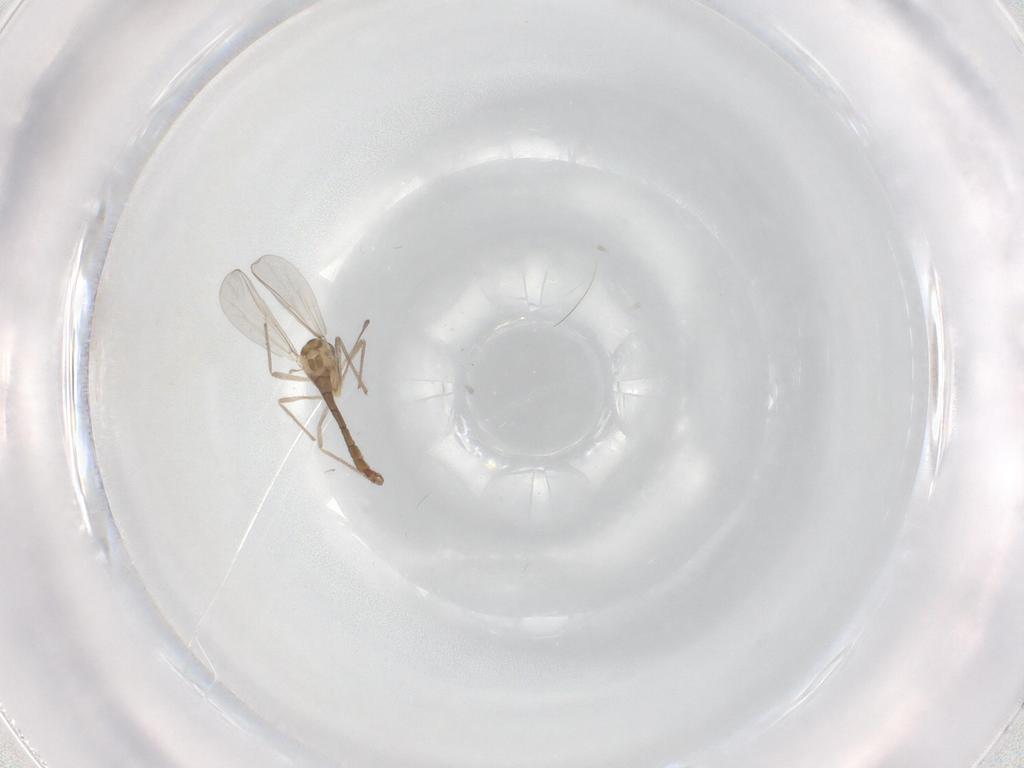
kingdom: Animalia
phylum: Arthropoda
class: Insecta
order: Diptera
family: Chironomidae
